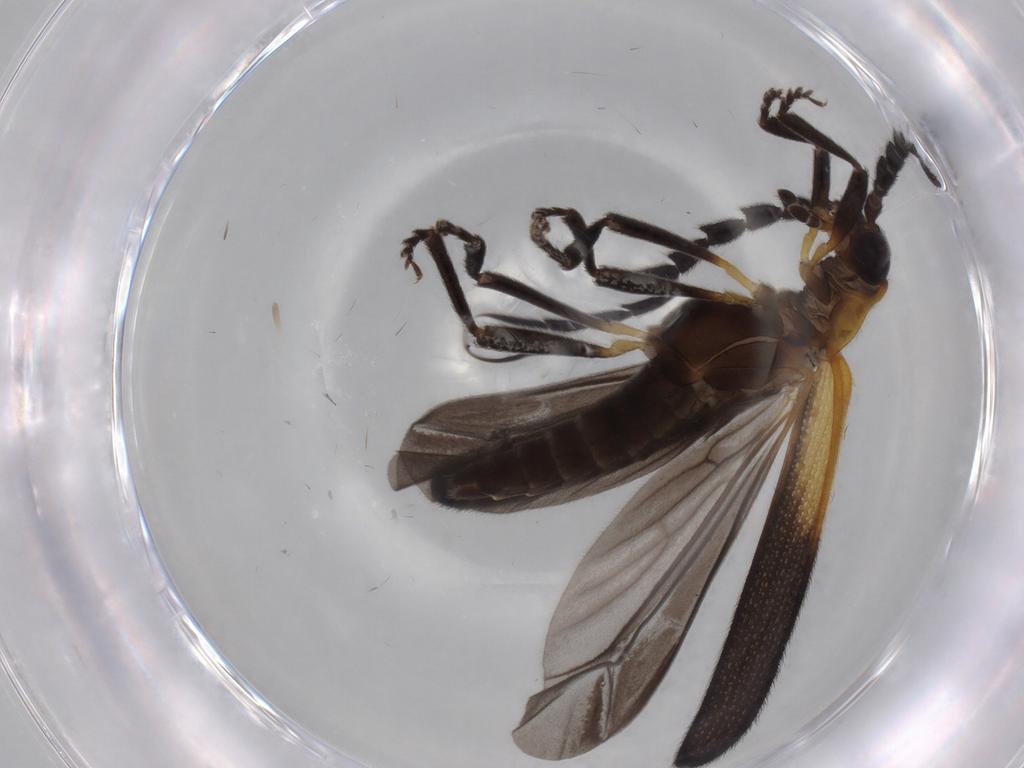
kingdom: Animalia
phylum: Arthropoda
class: Insecta
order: Coleoptera
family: Lycidae
